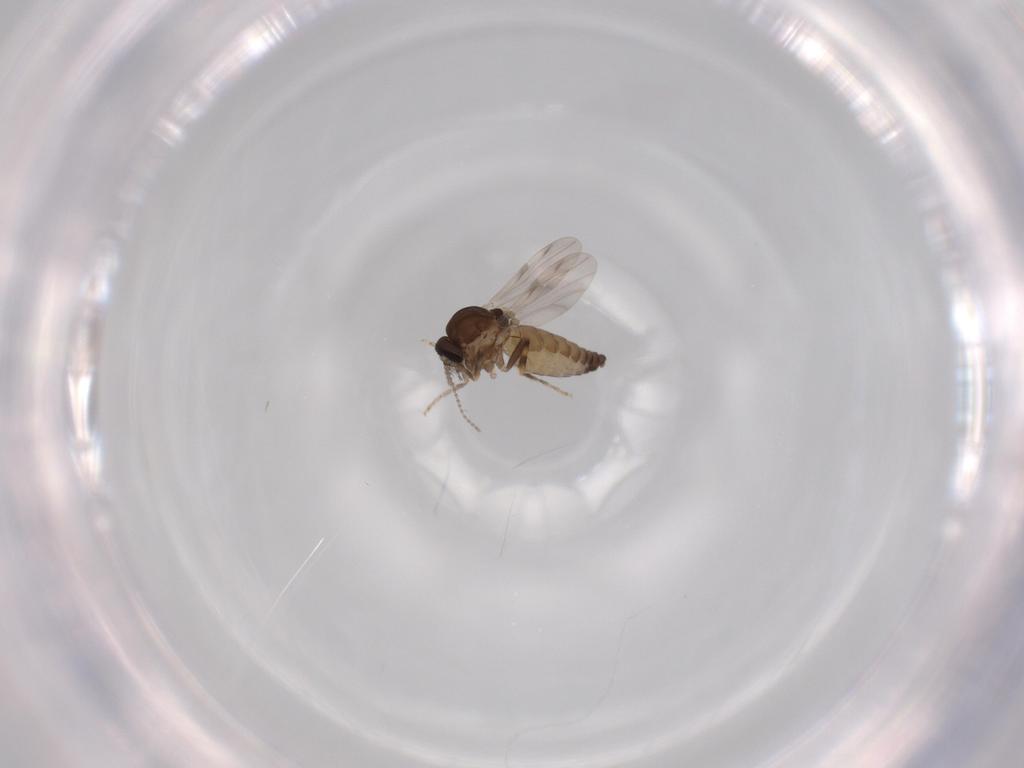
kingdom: Animalia
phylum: Arthropoda
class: Insecta
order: Diptera
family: Ceratopogonidae
